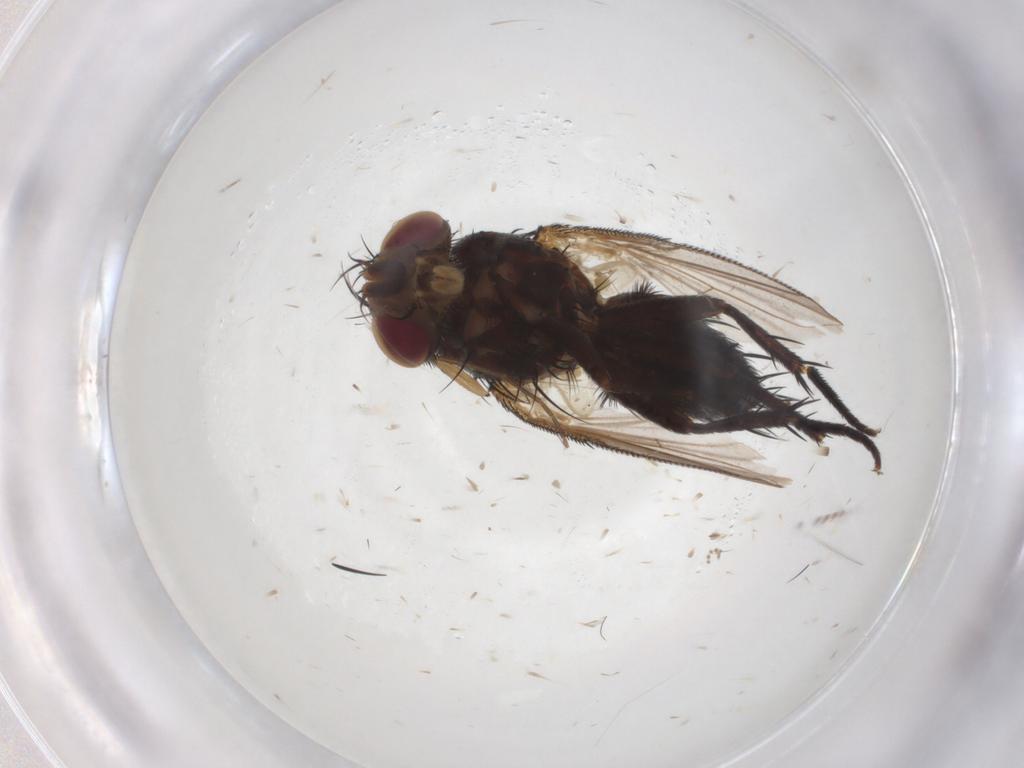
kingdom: Animalia
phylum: Arthropoda
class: Insecta
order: Diptera
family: Tachinidae
